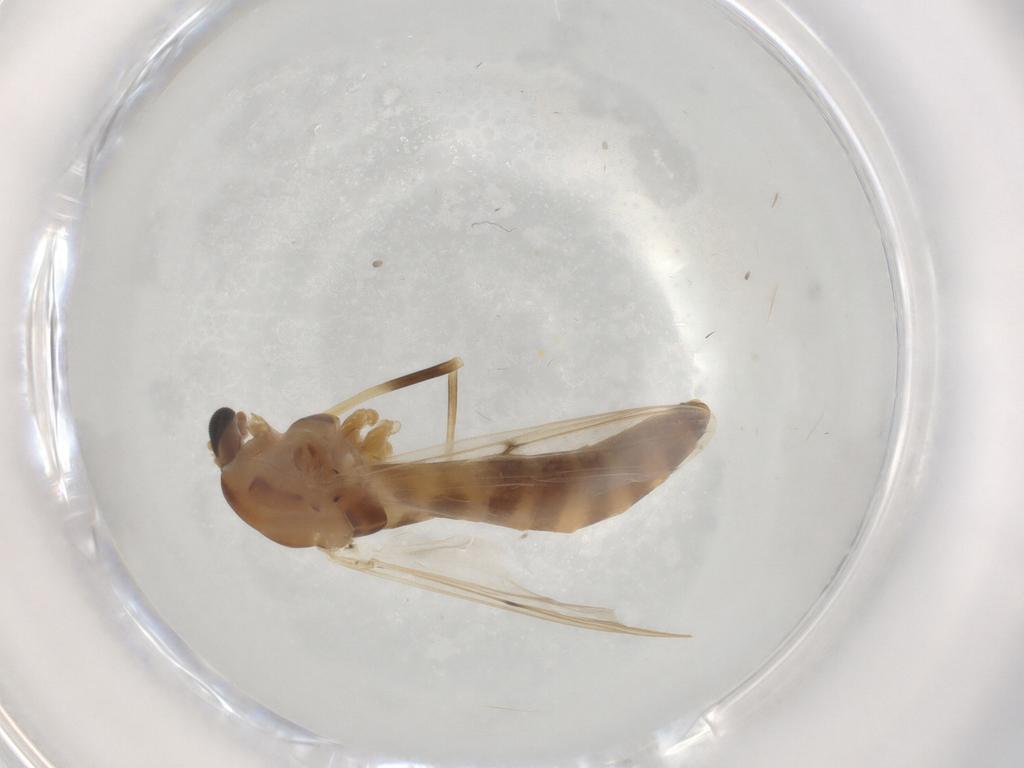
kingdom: Animalia
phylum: Arthropoda
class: Insecta
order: Diptera
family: Chironomidae
